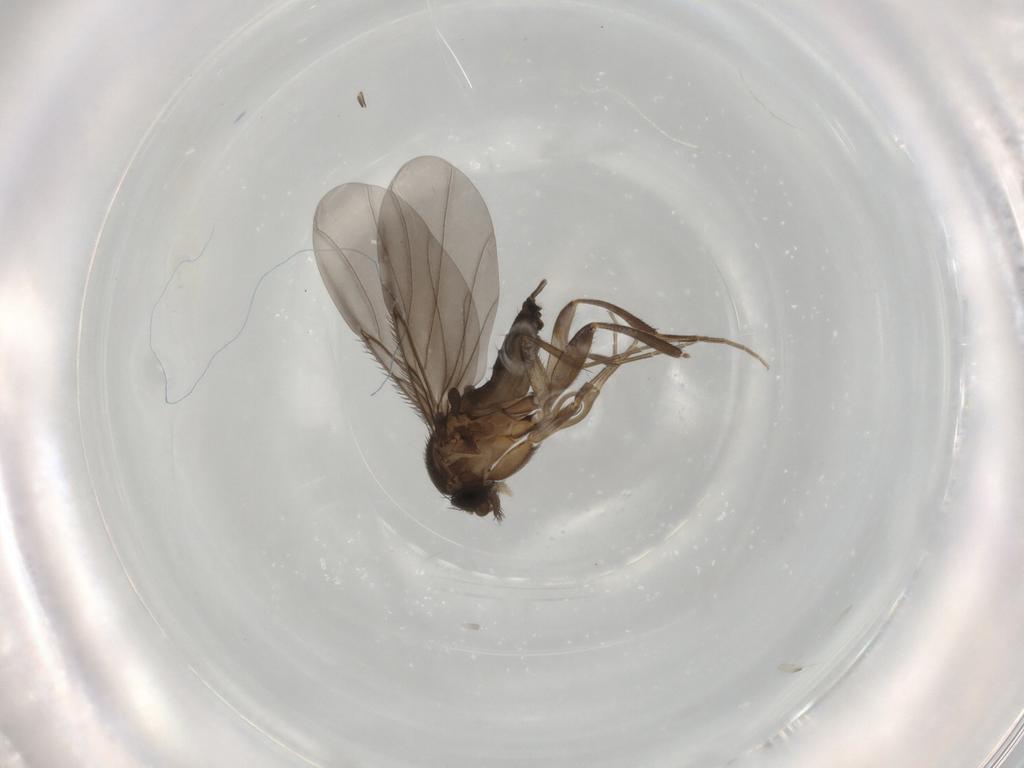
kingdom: Animalia
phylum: Arthropoda
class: Insecta
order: Diptera
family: Phoridae
